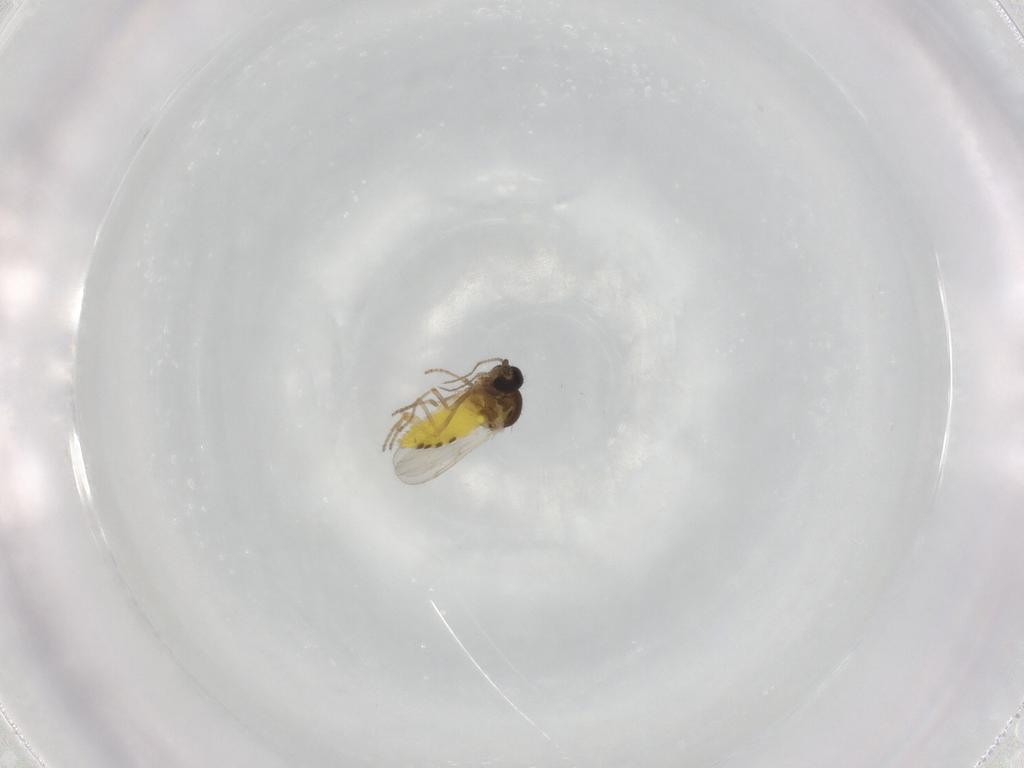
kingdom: Animalia
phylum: Arthropoda
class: Insecta
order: Diptera
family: Ceratopogonidae
